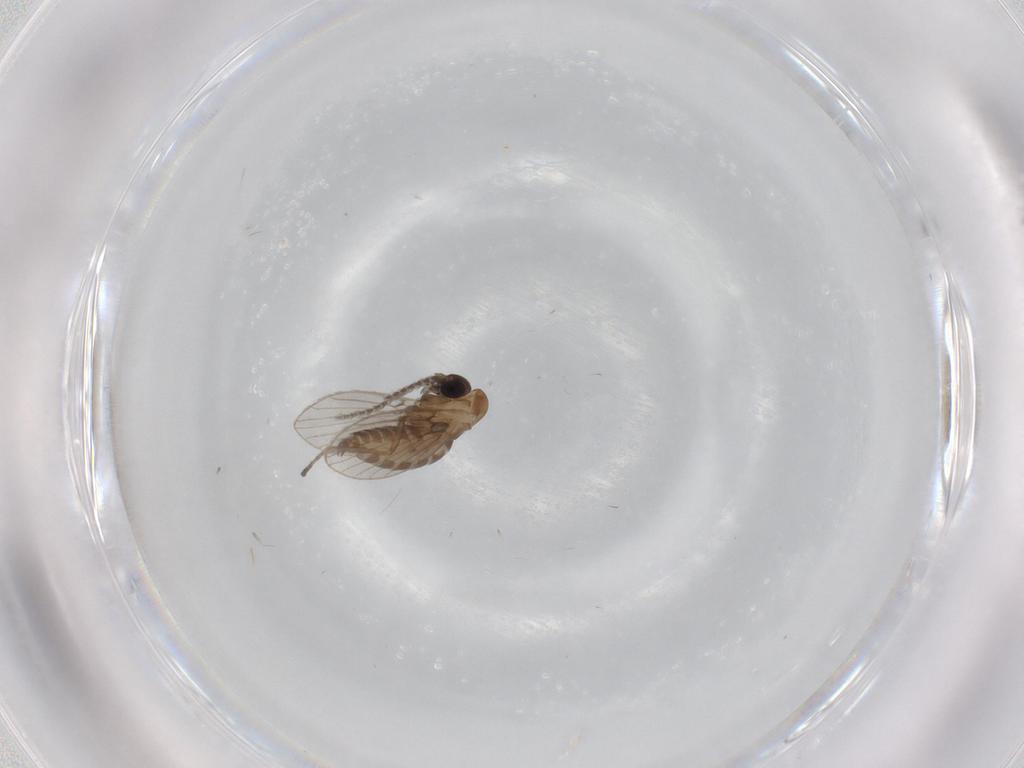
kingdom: Animalia
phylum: Arthropoda
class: Insecta
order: Diptera
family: Psychodidae
